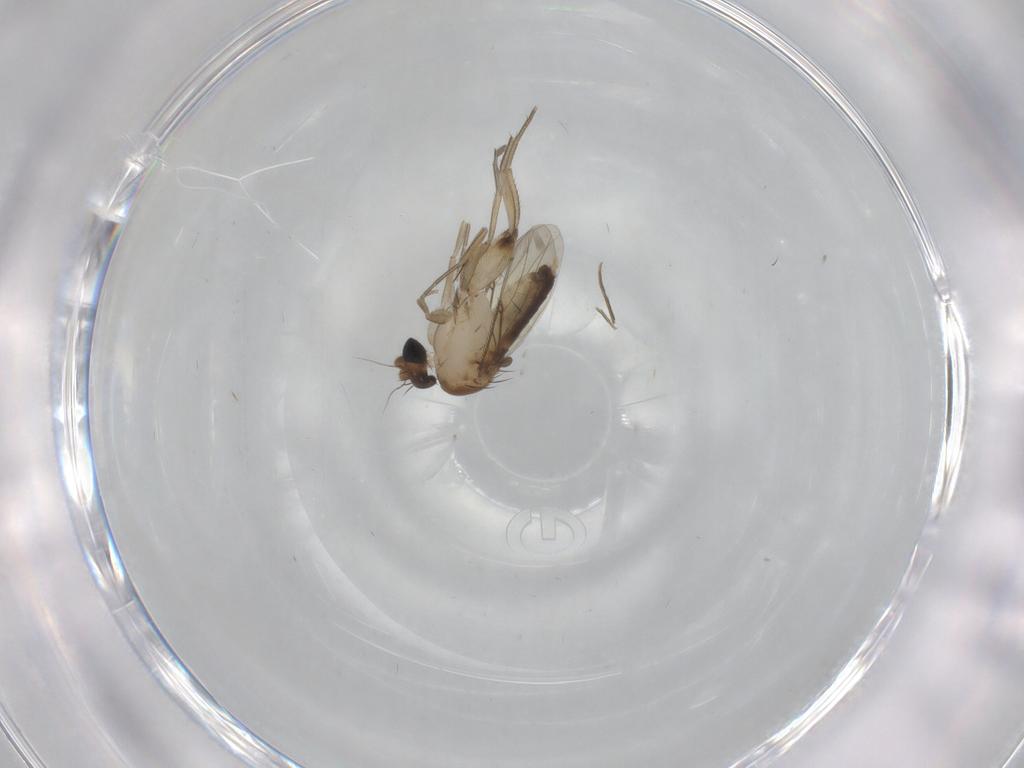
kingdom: Animalia
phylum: Arthropoda
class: Insecta
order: Diptera
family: Phoridae
